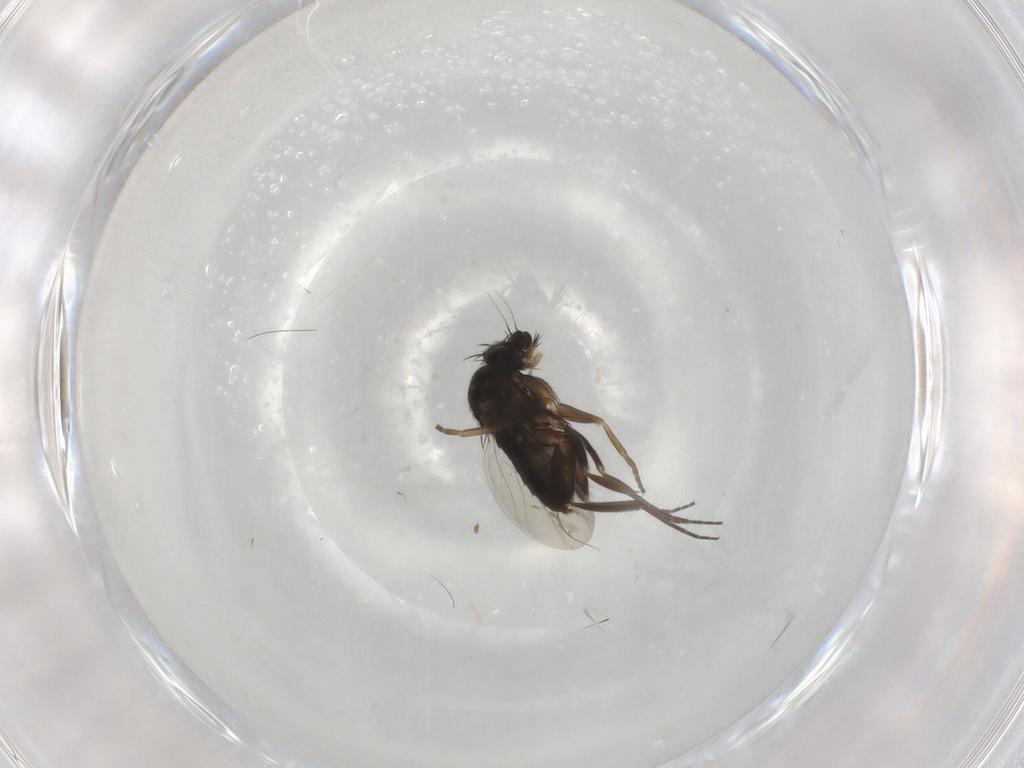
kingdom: Animalia
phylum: Arthropoda
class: Insecta
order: Diptera
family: Phoridae
